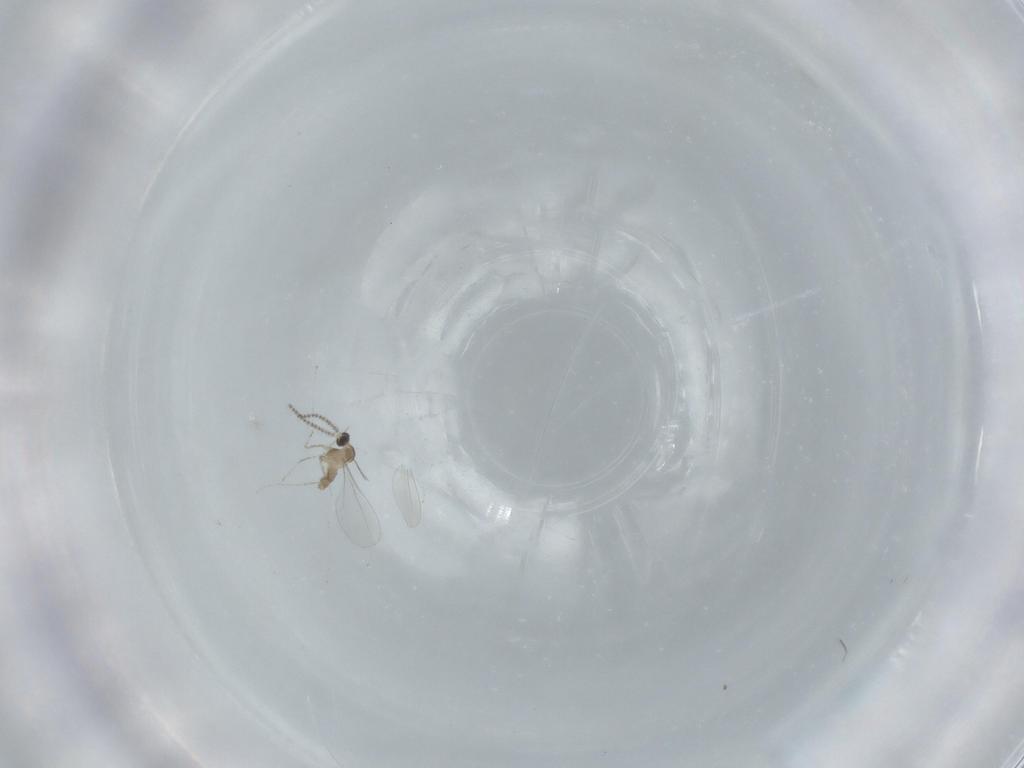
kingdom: Animalia
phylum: Arthropoda
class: Insecta
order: Diptera
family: Cecidomyiidae
